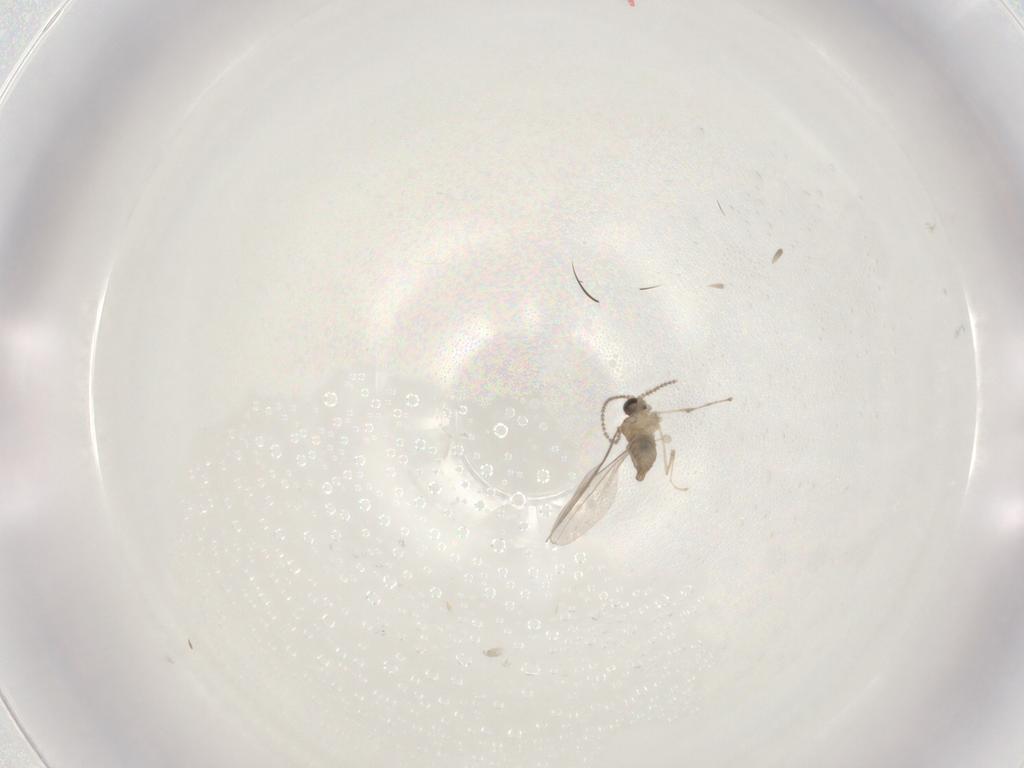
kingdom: Animalia
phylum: Arthropoda
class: Insecta
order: Diptera
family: Cecidomyiidae
